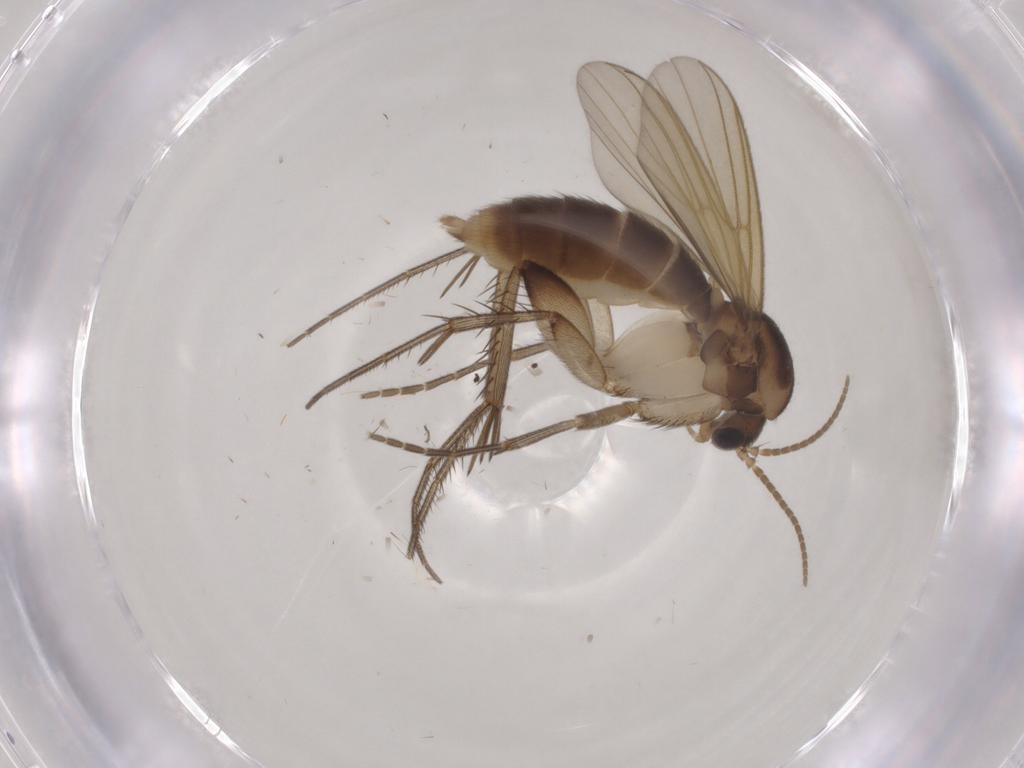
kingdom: Animalia
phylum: Arthropoda
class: Insecta
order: Diptera
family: Mycetophilidae
